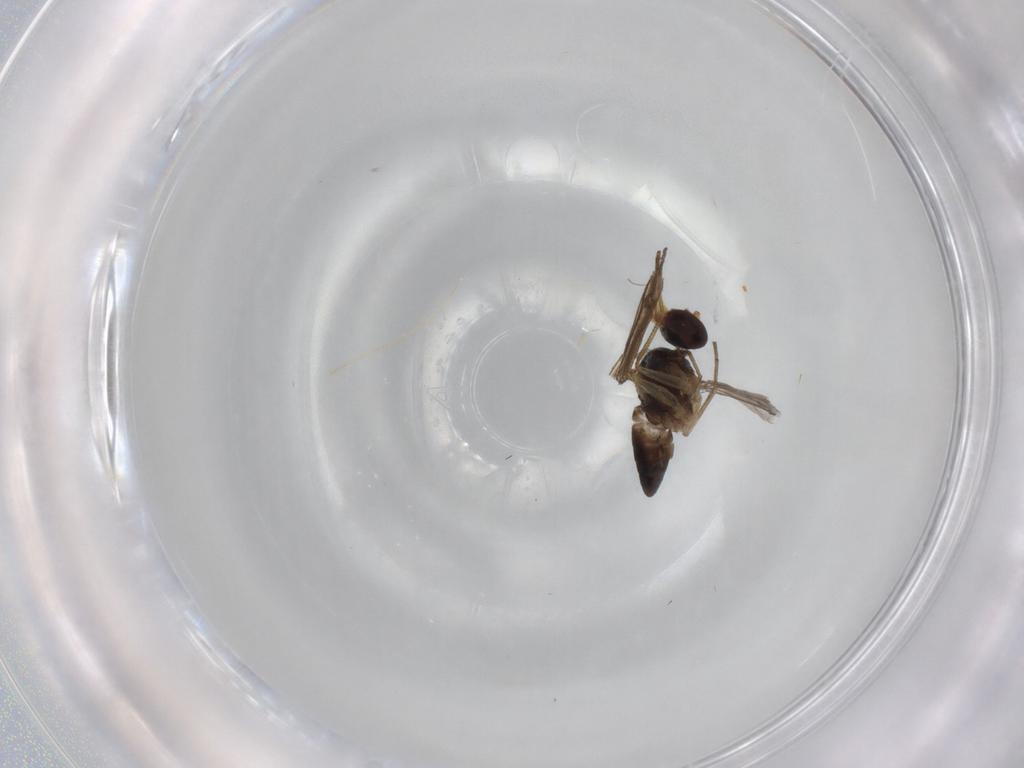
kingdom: Animalia
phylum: Arthropoda
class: Insecta
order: Diptera
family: Dolichopodidae
